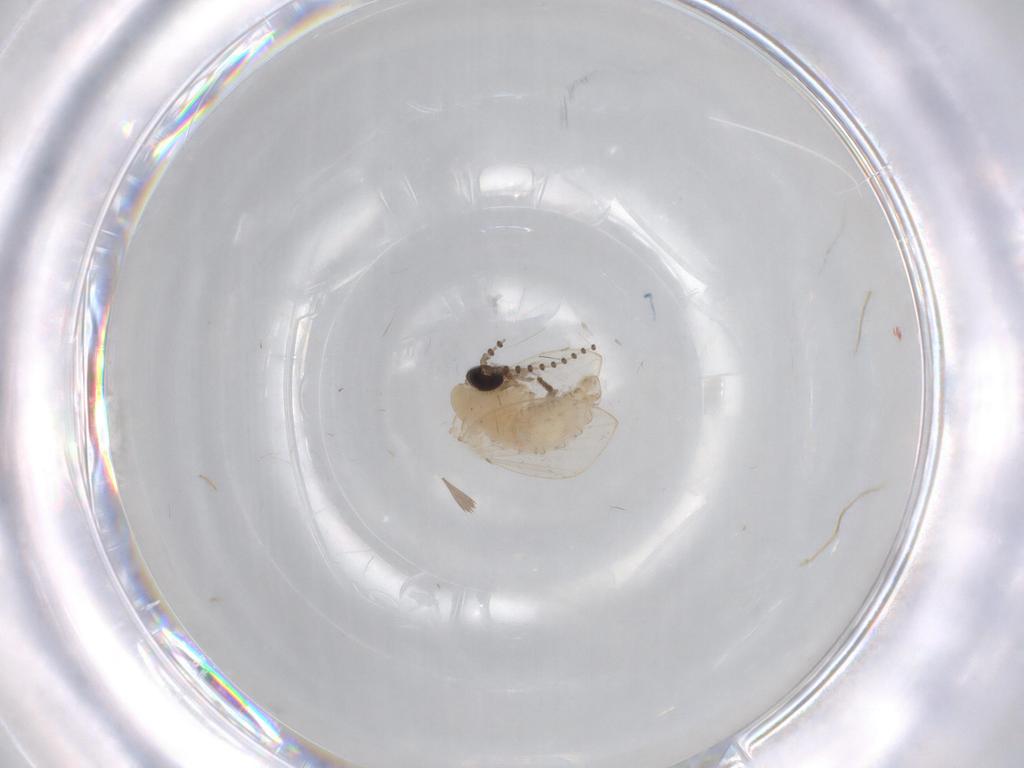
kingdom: Animalia
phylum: Arthropoda
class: Insecta
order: Diptera
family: Psychodidae
